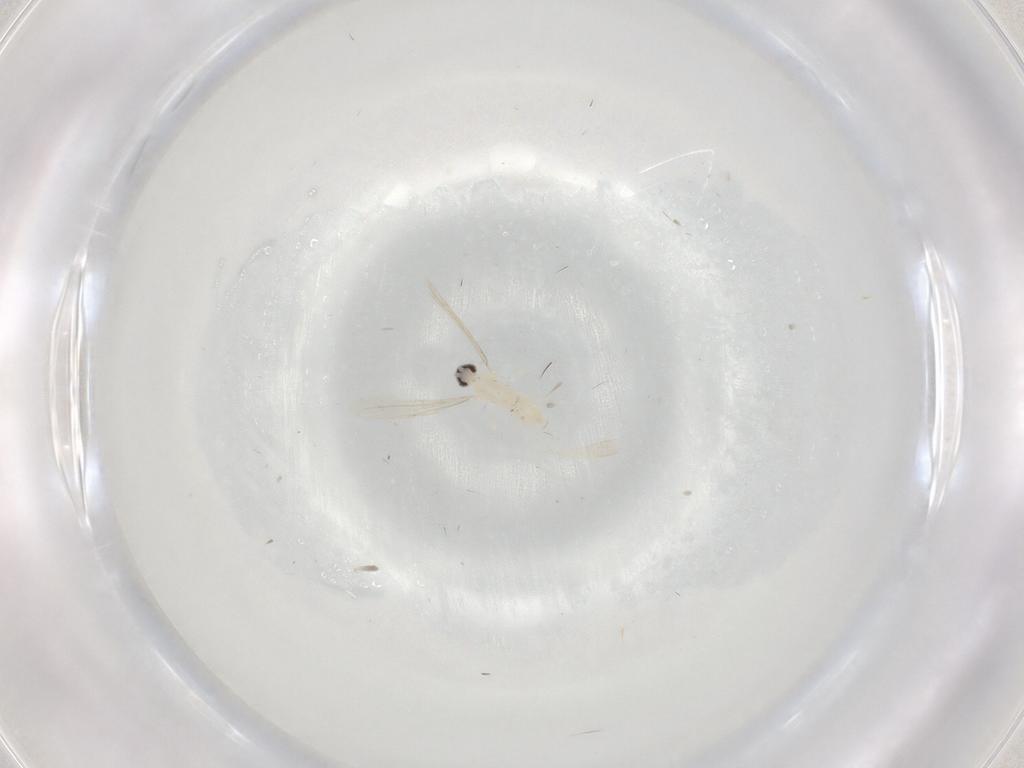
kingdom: Animalia
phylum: Arthropoda
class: Insecta
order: Diptera
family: Cecidomyiidae
